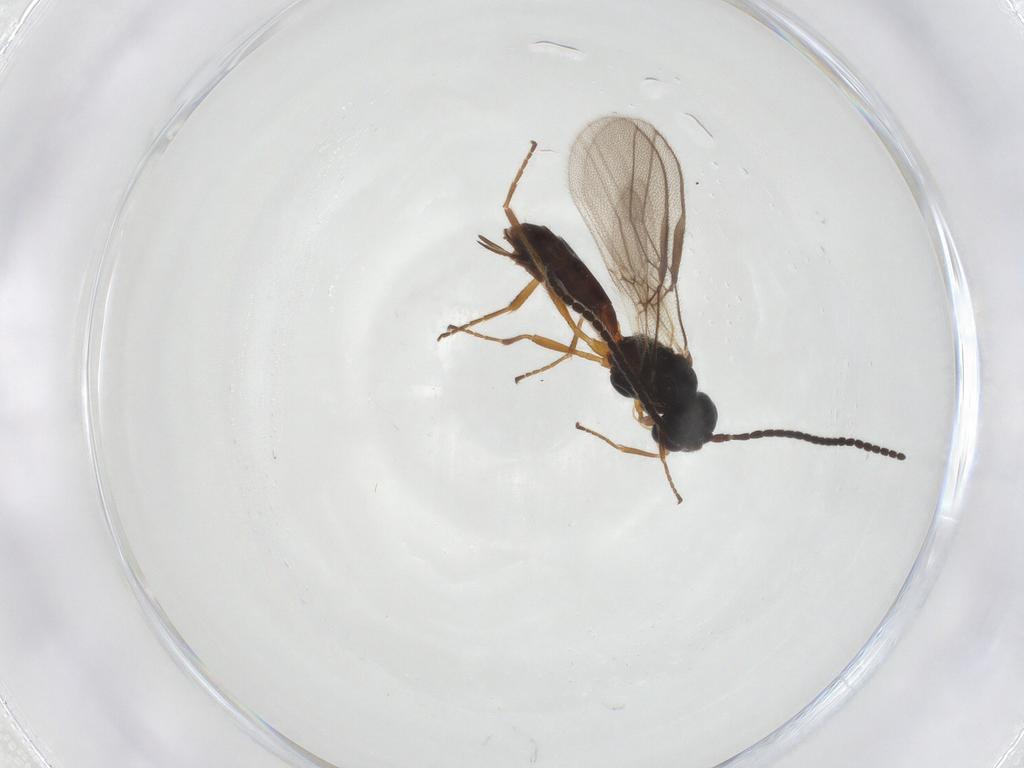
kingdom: Animalia
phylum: Arthropoda
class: Insecta
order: Hymenoptera
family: Braconidae
